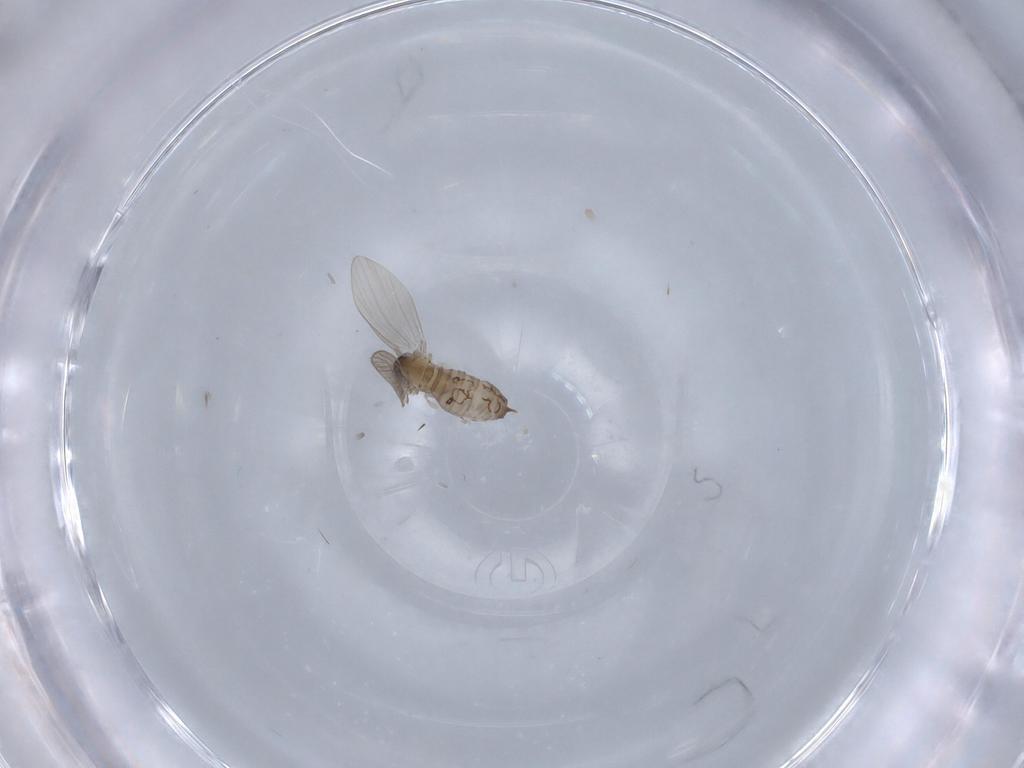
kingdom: Animalia
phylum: Arthropoda
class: Insecta
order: Diptera
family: Psychodidae
